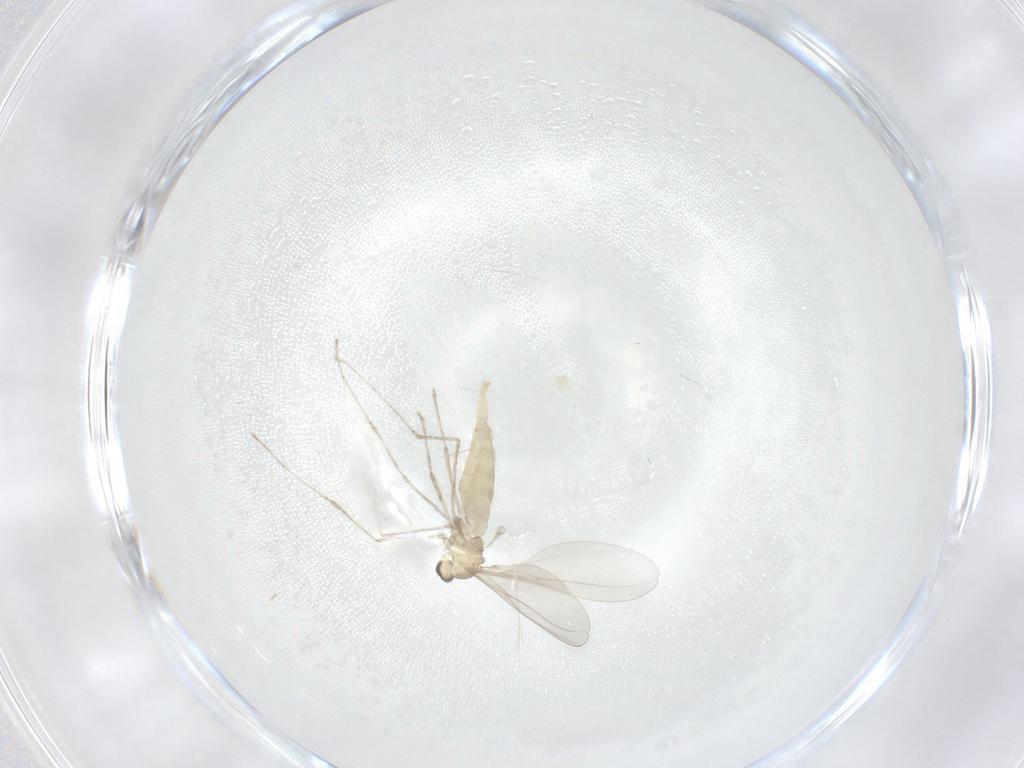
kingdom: Animalia
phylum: Arthropoda
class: Insecta
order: Diptera
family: Cecidomyiidae
